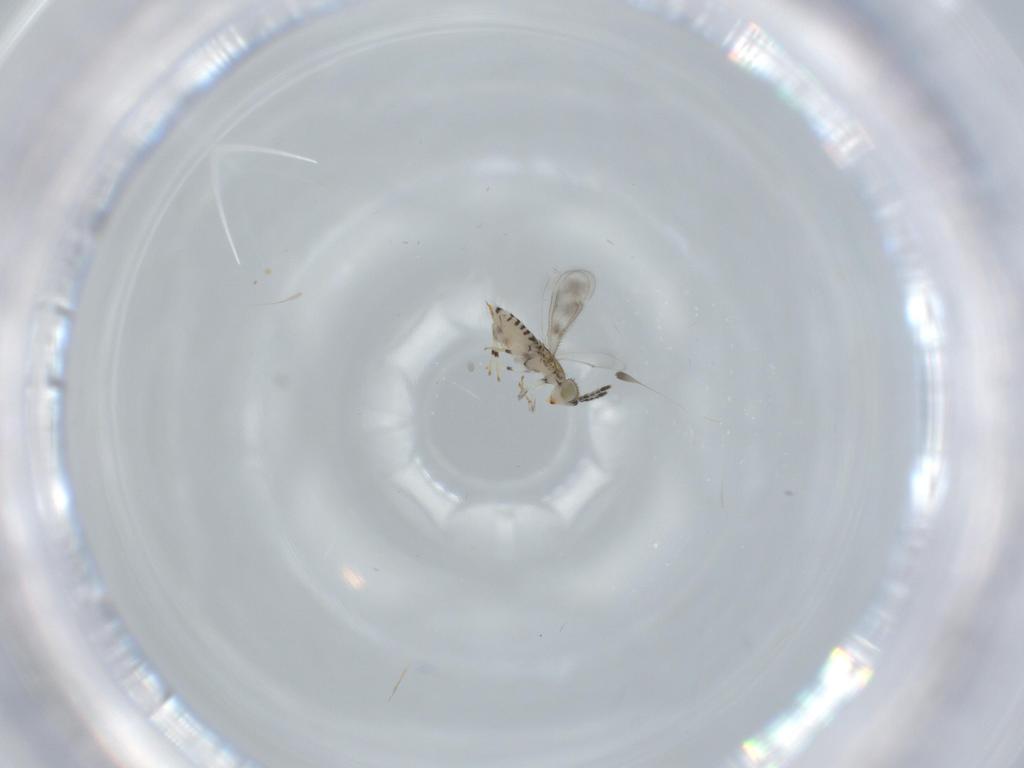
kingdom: Animalia
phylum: Arthropoda
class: Insecta
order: Hymenoptera
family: Aphelinidae
